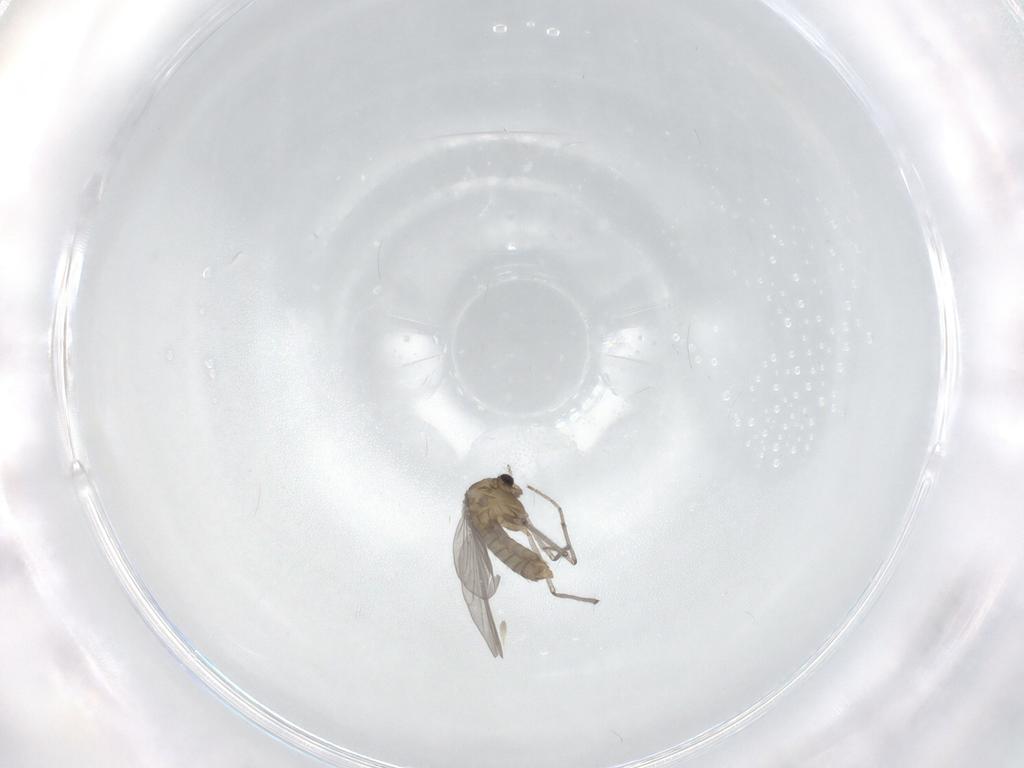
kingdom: Animalia
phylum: Arthropoda
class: Insecta
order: Diptera
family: Chironomidae
